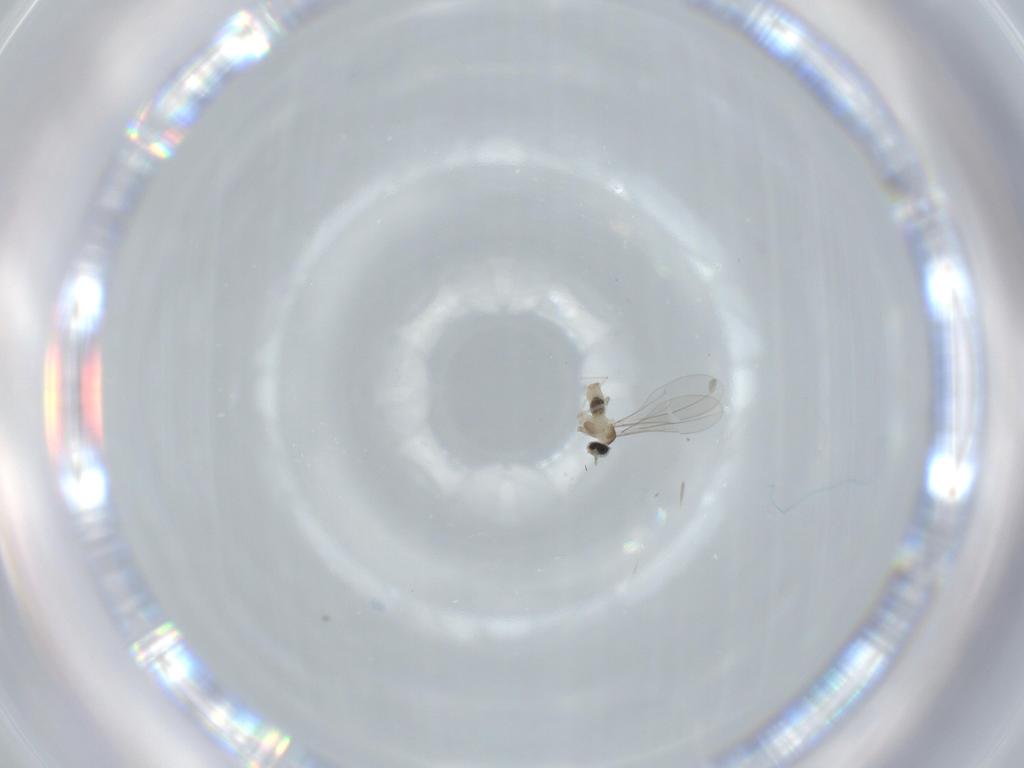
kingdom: Animalia
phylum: Arthropoda
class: Insecta
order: Diptera
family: Cecidomyiidae
